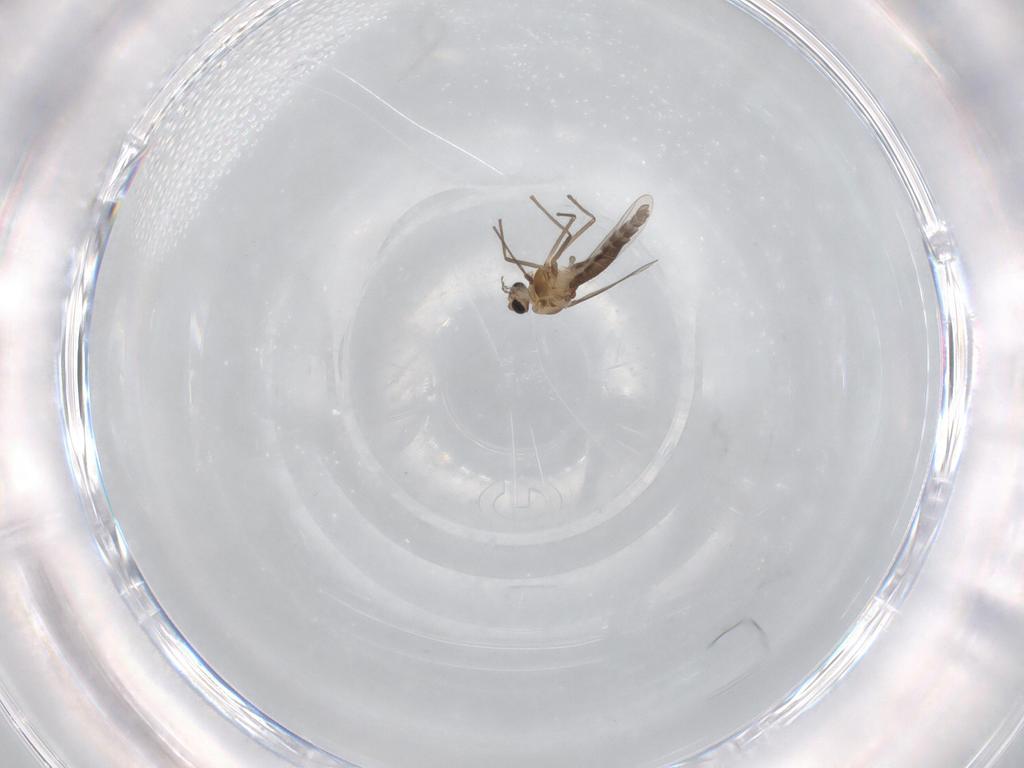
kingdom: Animalia
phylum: Arthropoda
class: Insecta
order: Diptera
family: Chironomidae
